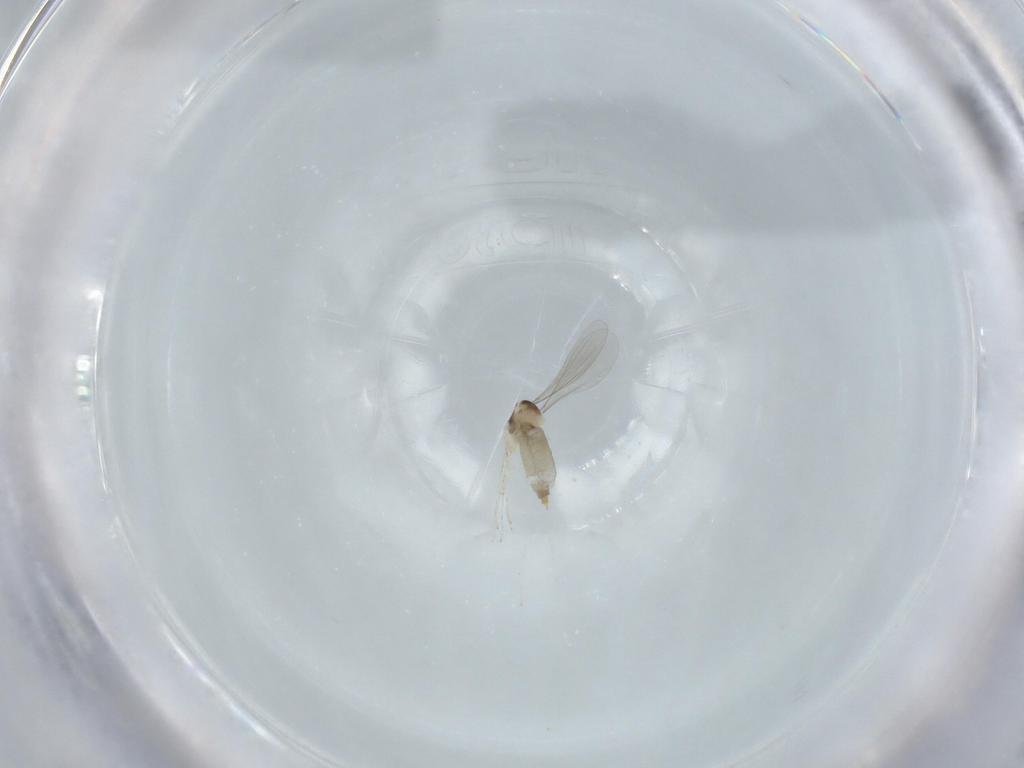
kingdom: Animalia
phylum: Arthropoda
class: Insecta
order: Diptera
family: Cecidomyiidae
